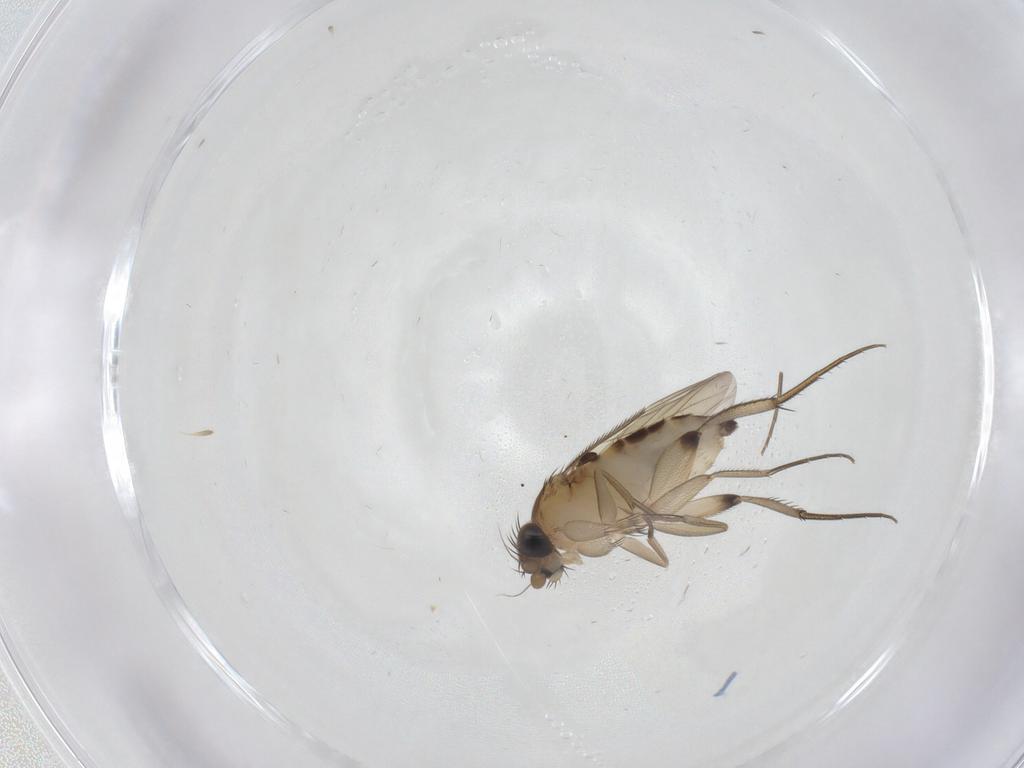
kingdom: Animalia
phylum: Arthropoda
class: Insecta
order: Diptera
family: Phoridae
